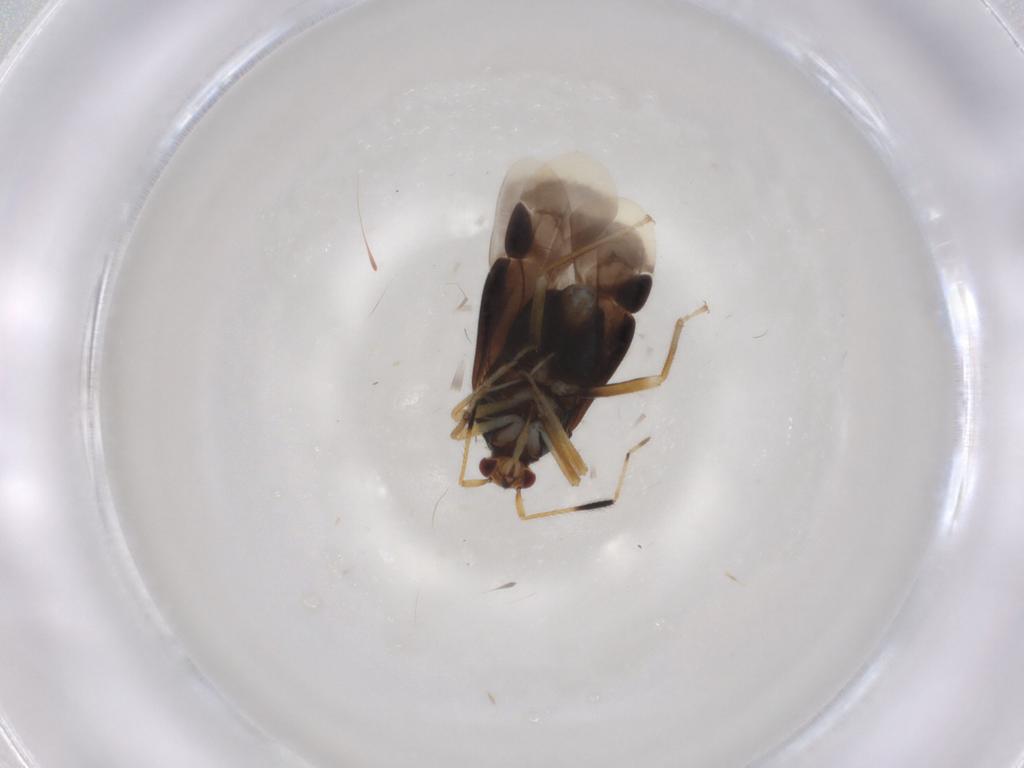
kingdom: Animalia
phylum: Arthropoda
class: Insecta
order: Hemiptera
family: Miridae
